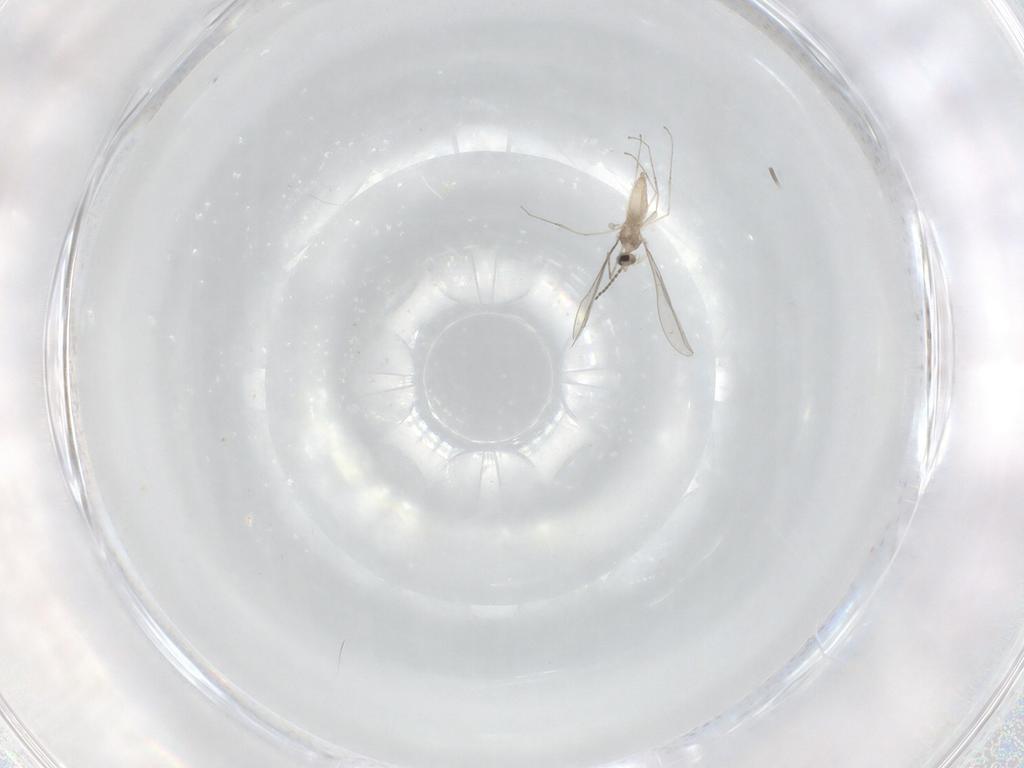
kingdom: Animalia
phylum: Arthropoda
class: Insecta
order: Diptera
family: Cecidomyiidae
